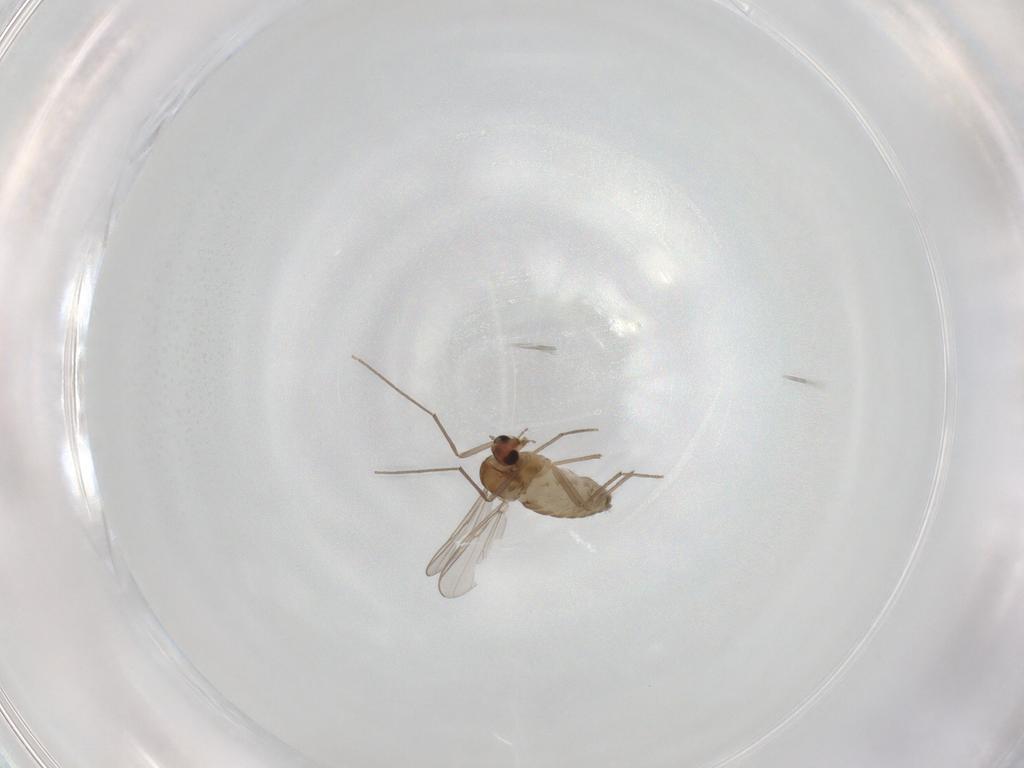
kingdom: Animalia
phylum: Arthropoda
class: Insecta
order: Diptera
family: Chironomidae
